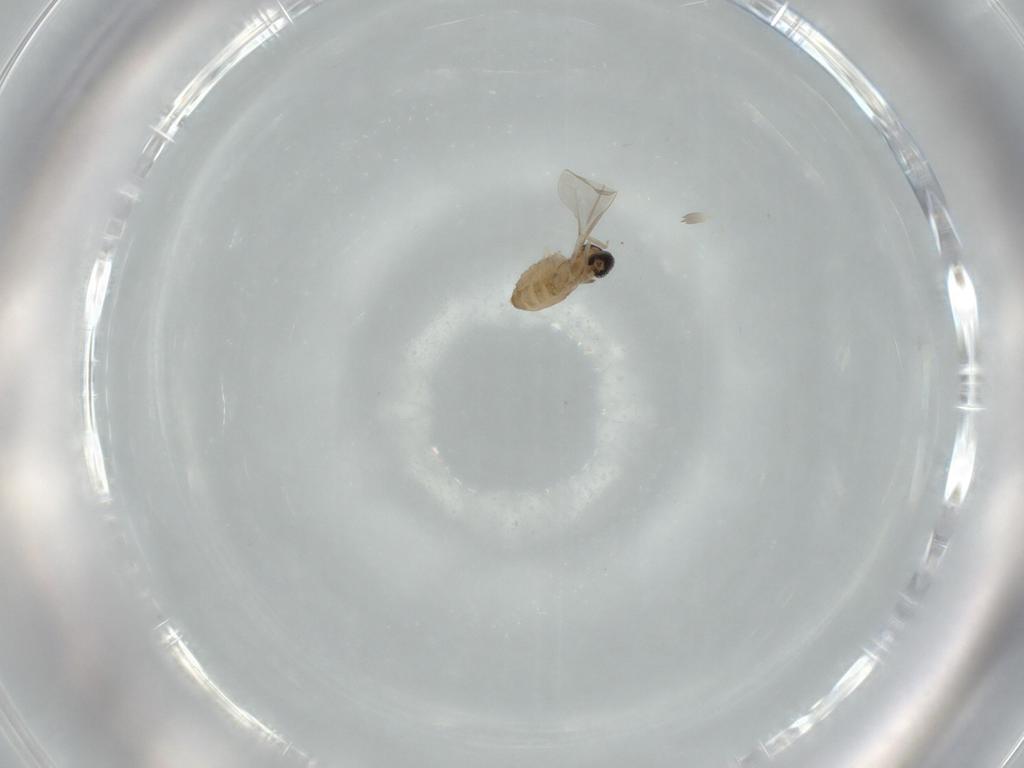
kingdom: Animalia
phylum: Arthropoda
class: Insecta
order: Diptera
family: Cecidomyiidae
